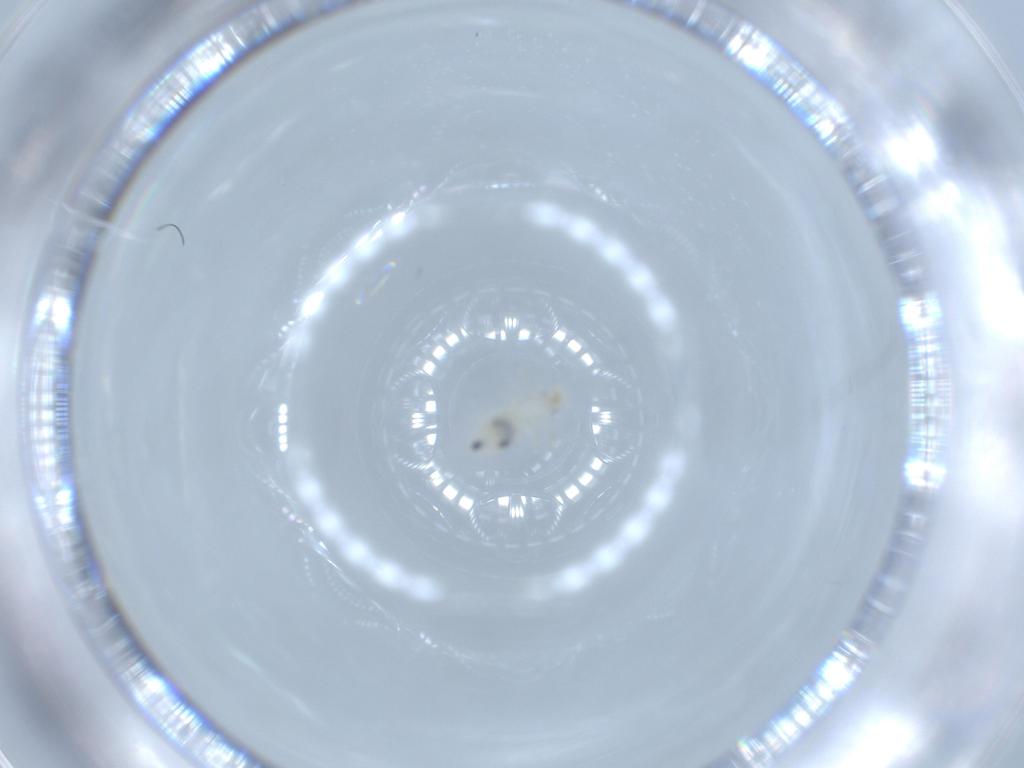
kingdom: Animalia
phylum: Arthropoda
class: Insecta
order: Psocodea
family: Caeciliusidae
